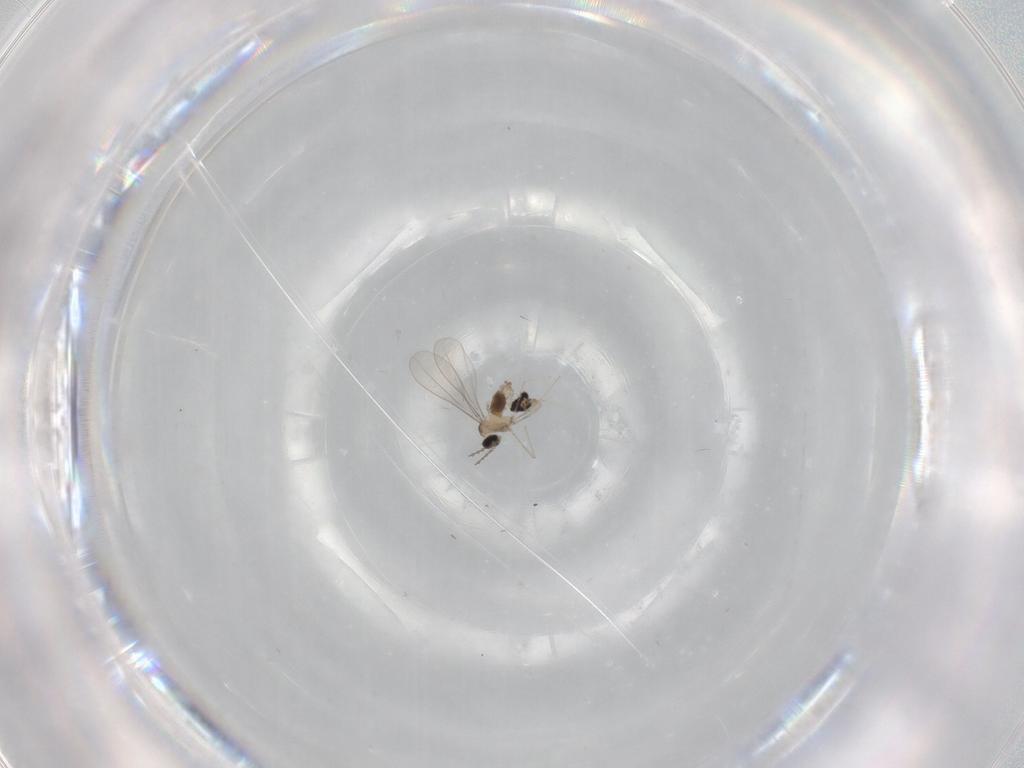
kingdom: Animalia
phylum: Arthropoda
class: Insecta
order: Diptera
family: Cecidomyiidae
